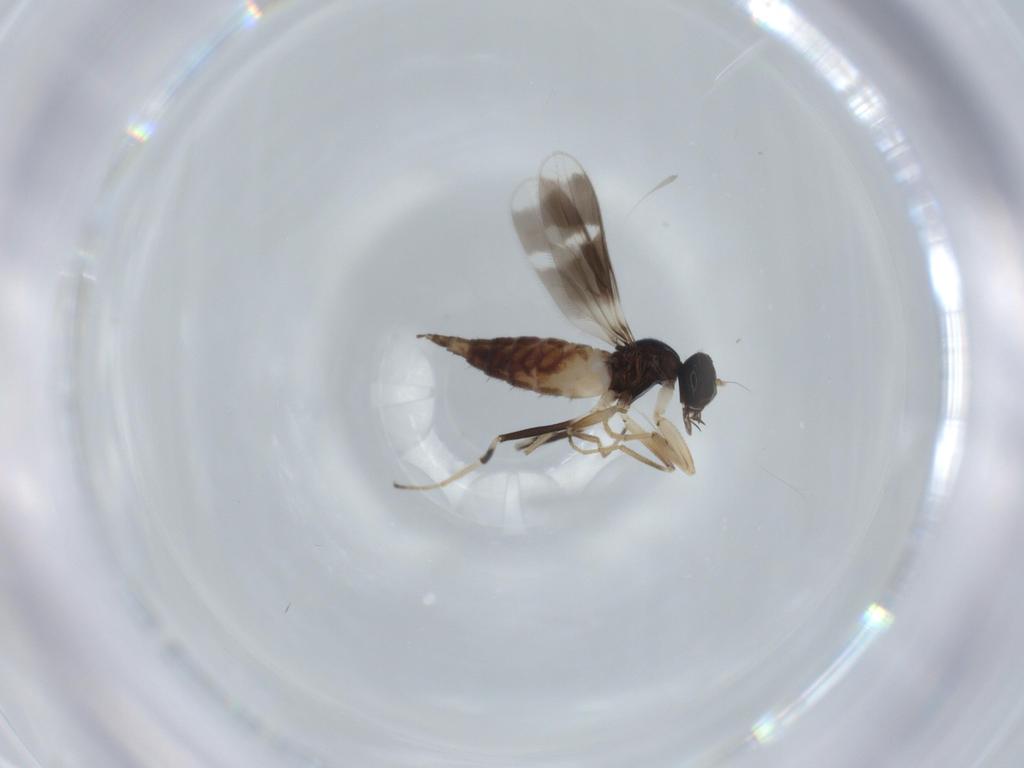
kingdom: Animalia
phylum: Arthropoda
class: Insecta
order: Diptera
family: Hybotidae
